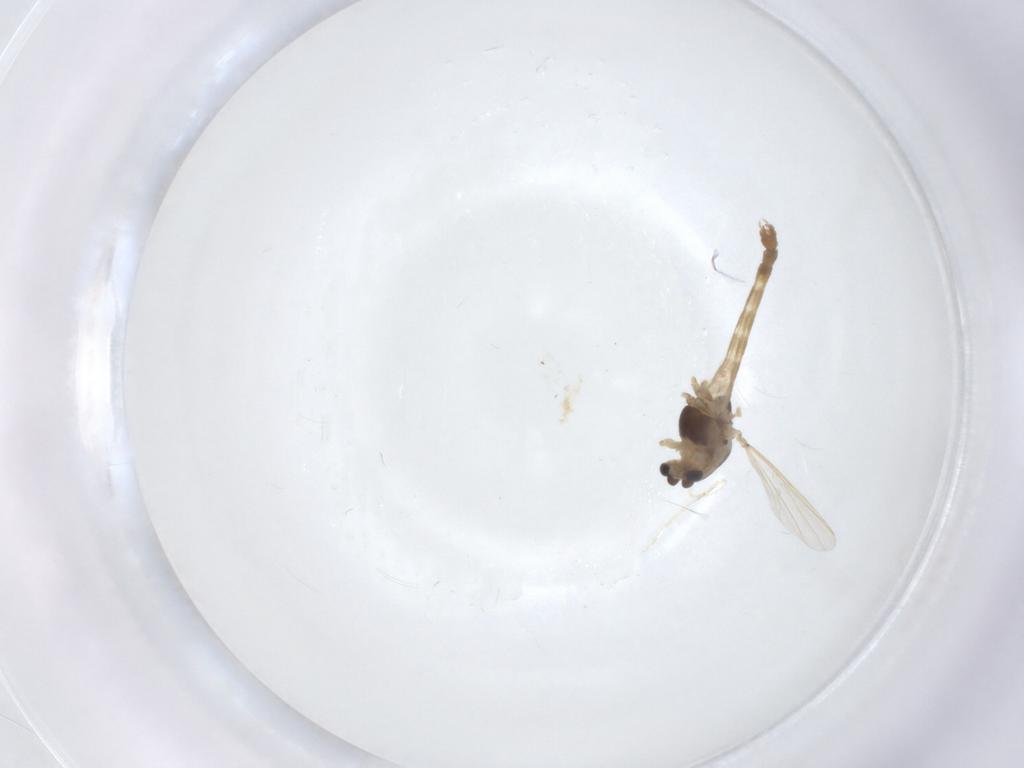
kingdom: Animalia
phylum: Arthropoda
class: Insecta
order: Diptera
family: Chironomidae
